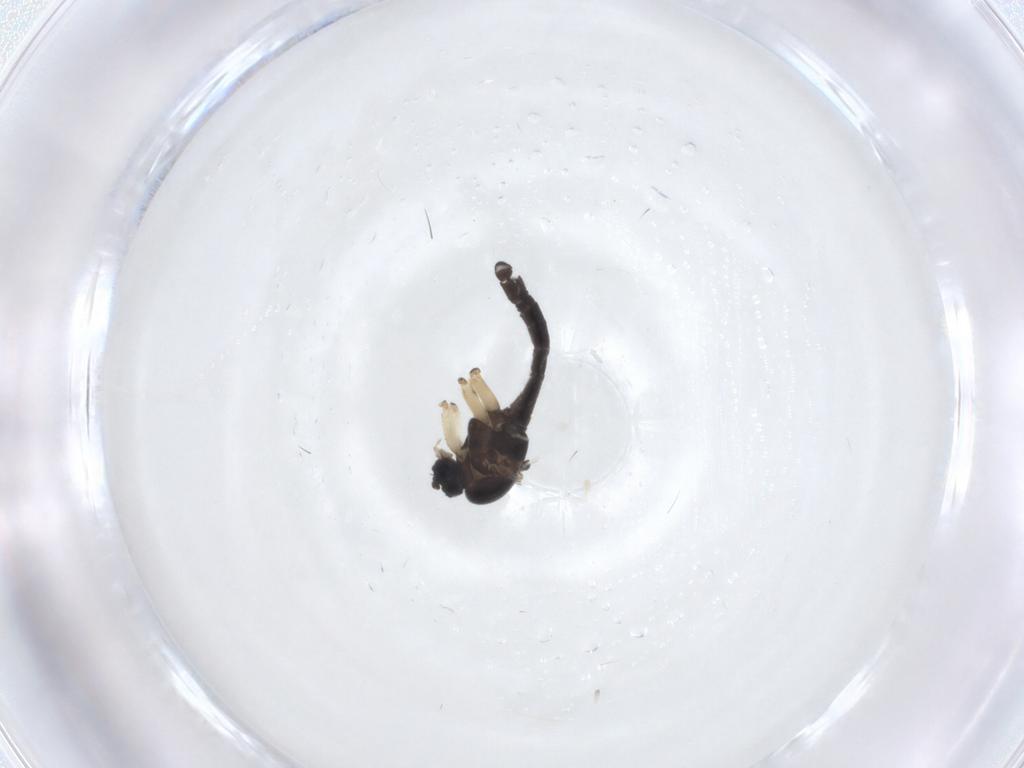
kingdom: Animalia
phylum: Arthropoda
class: Insecta
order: Diptera
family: Sciaridae
